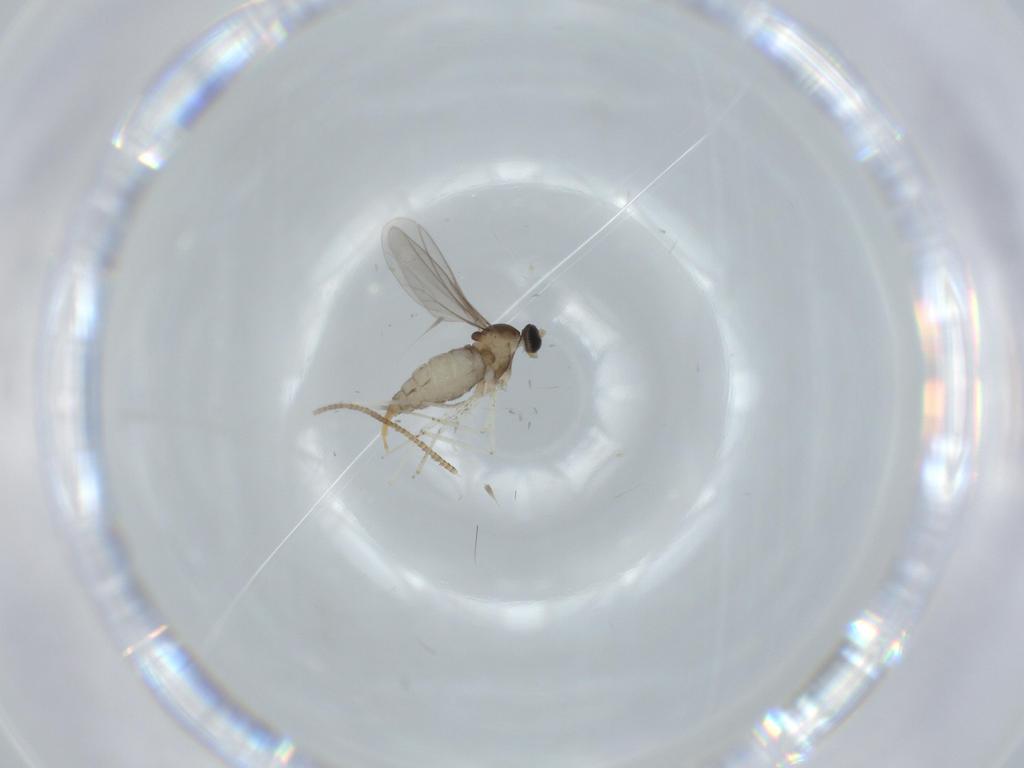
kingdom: Animalia
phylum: Arthropoda
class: Insecta
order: Diptera
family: Cecidomyiidae
